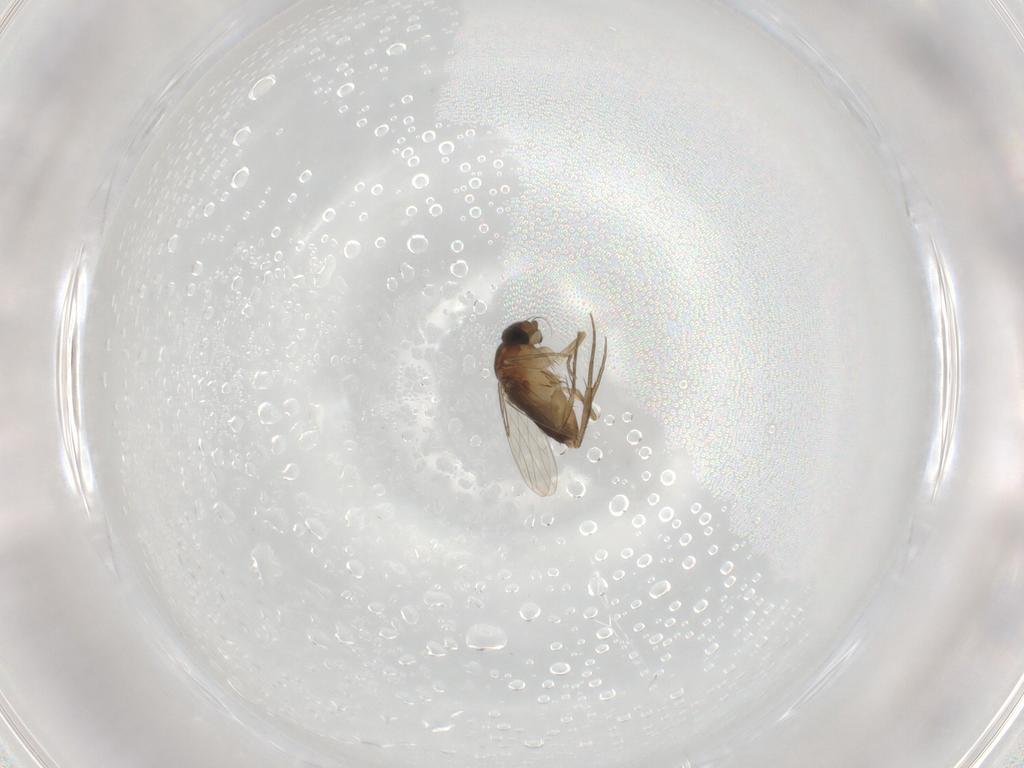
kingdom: Animalia
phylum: Arthropoda
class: Insecta
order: Diptera
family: Phoridae
